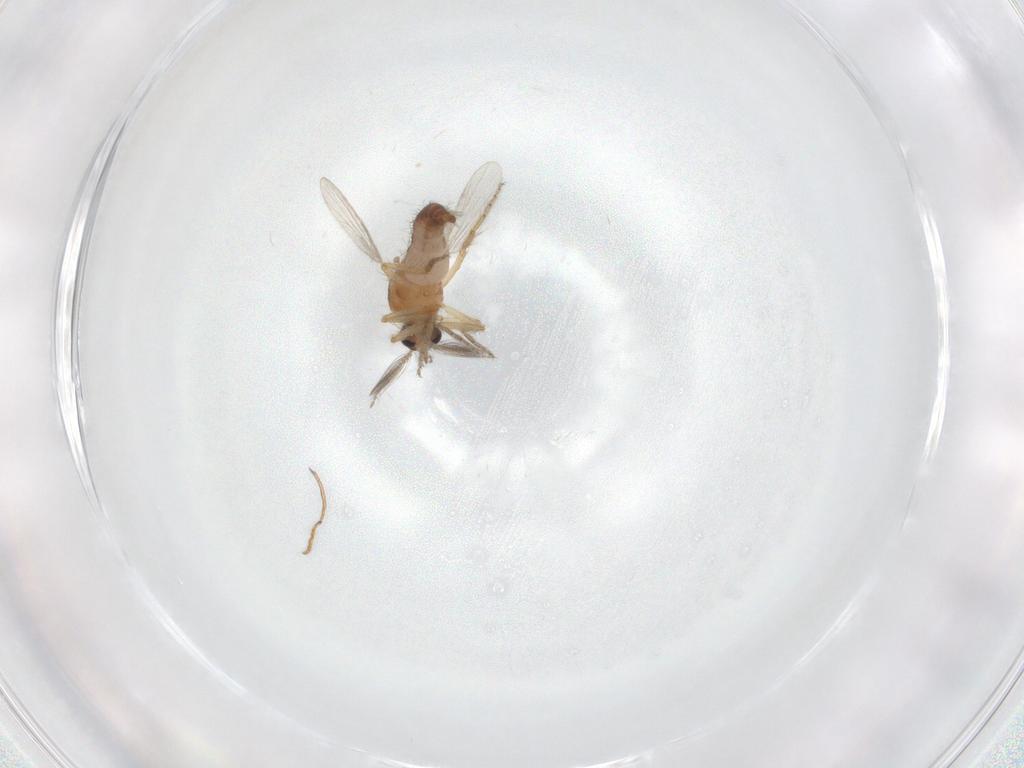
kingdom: Animalia
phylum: Arthropoda
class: Insecta
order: Diptera
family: Ceratopogonidae
